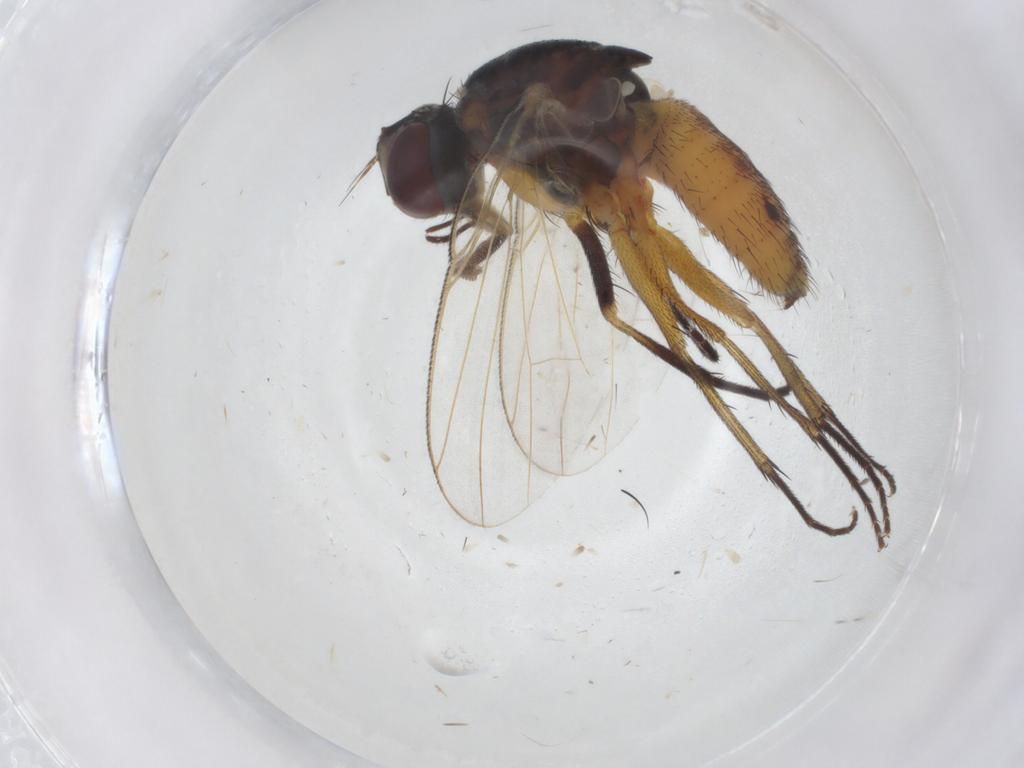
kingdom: Animalia
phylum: Arthropoda
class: Insecta
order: Diptera
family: Muscidae
